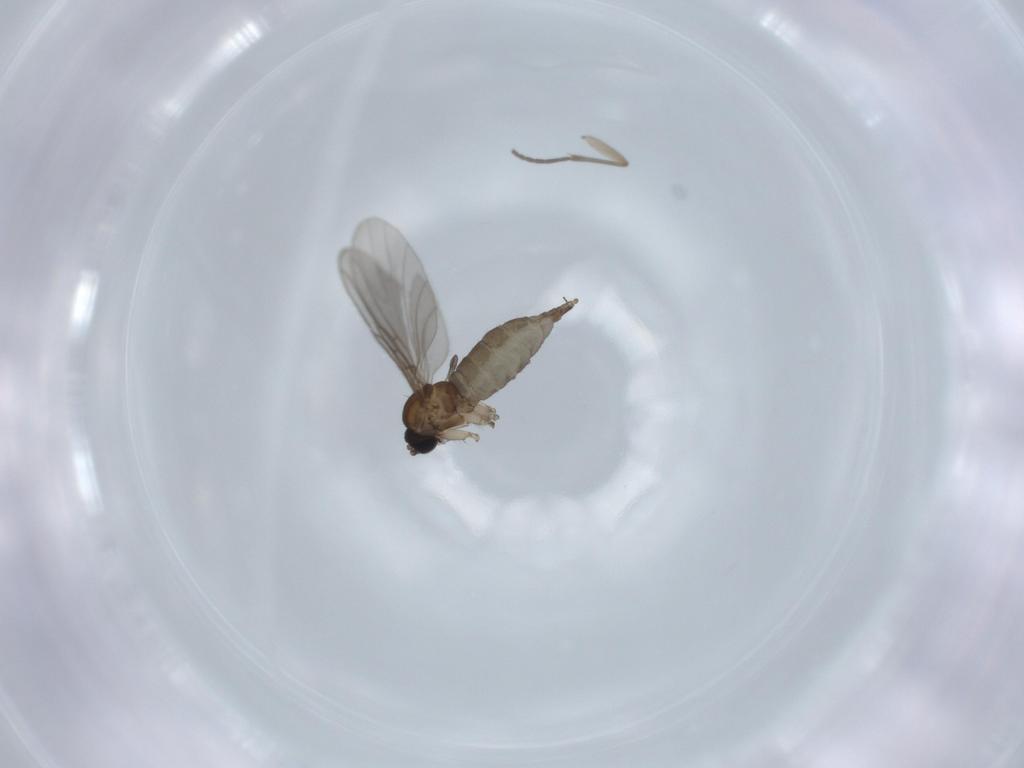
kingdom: Animalia
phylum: Arthropoda
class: Insecta
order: Diptera
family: Sciaridae
